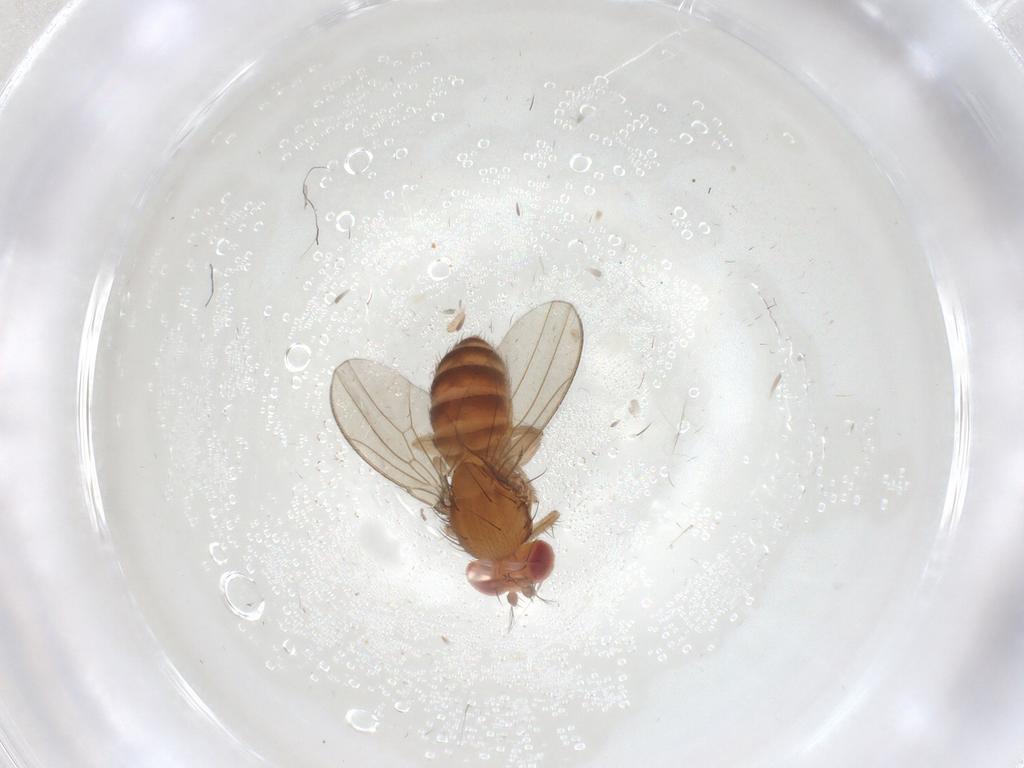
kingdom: Animalia
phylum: Arthropoda
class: Insecta
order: Diptera
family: Drosophilidae
